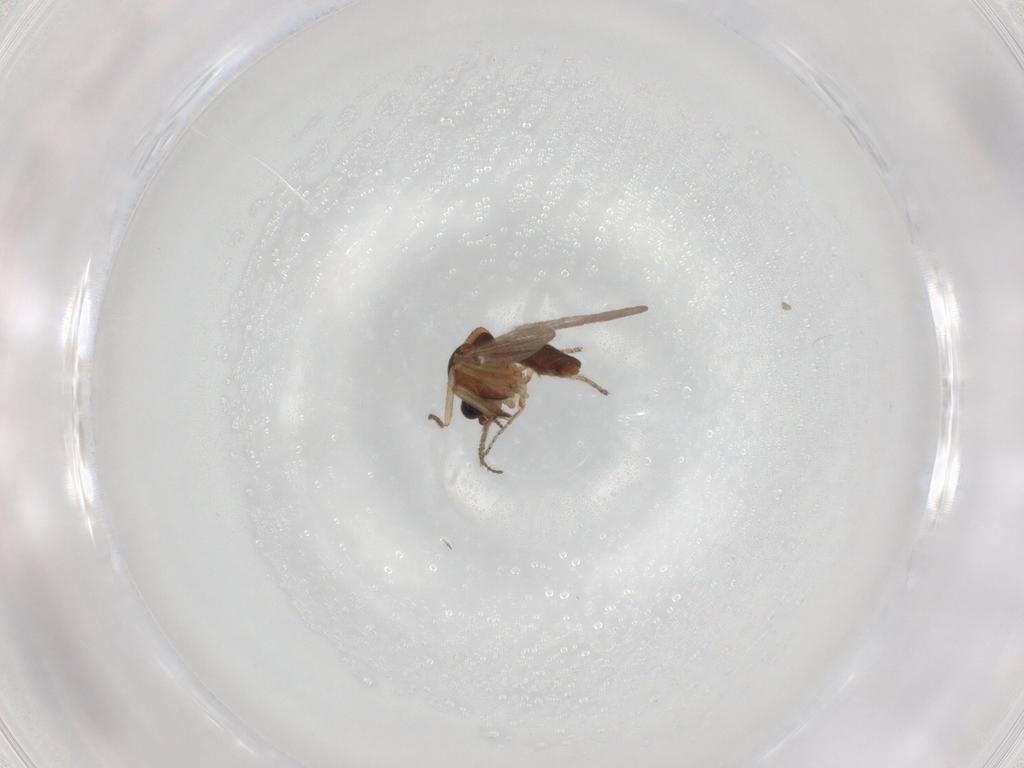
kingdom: Animalia
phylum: Arthropoda
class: Insecta
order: Diptera
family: Ceratopogonidae
